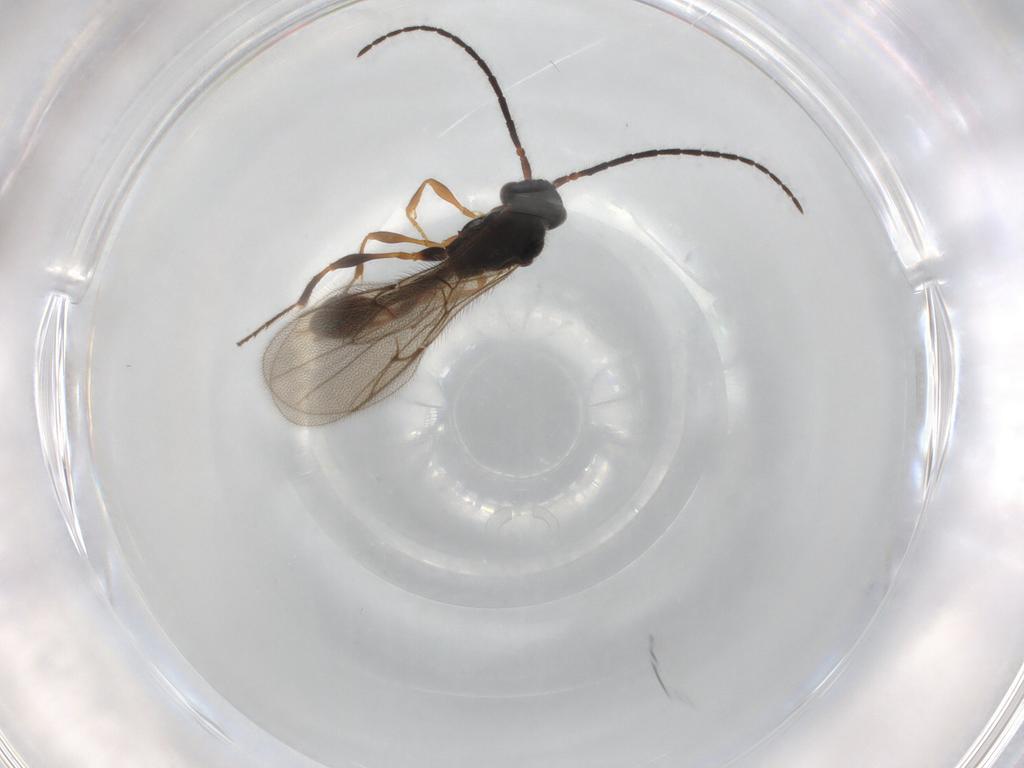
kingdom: Animalia
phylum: Arthropoda
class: Insecta
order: Hymenoptera
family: Diapriidae
